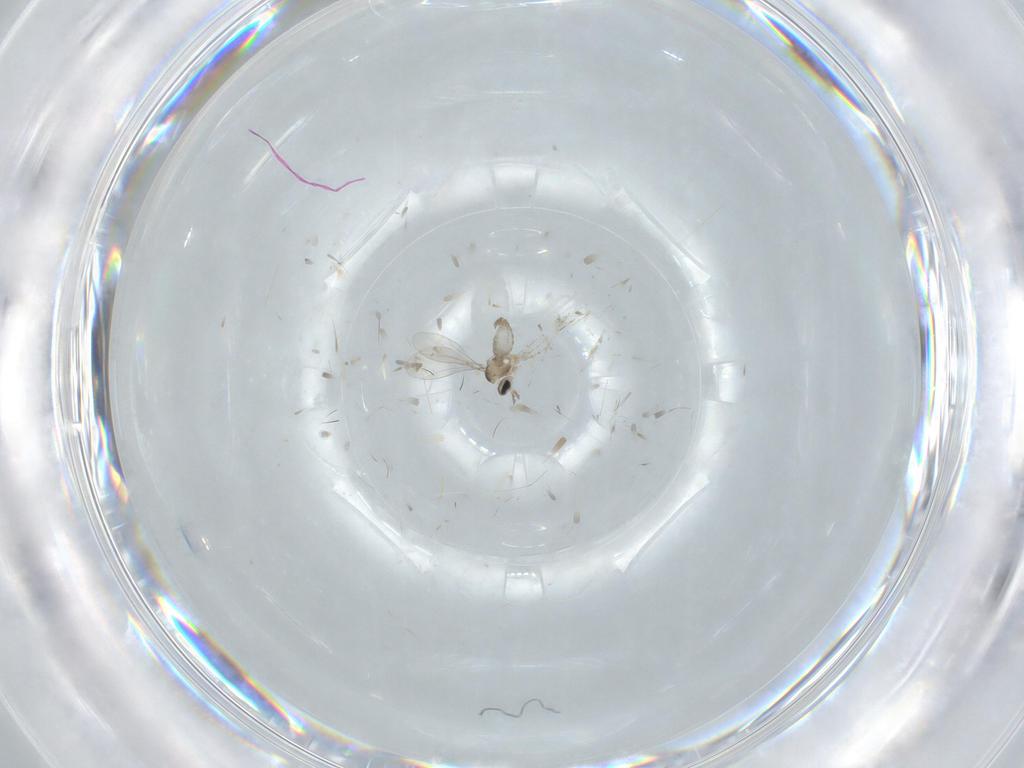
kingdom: Animalia
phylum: Arthropoda
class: Insecta
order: Diptera
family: Cecidomyiidae
